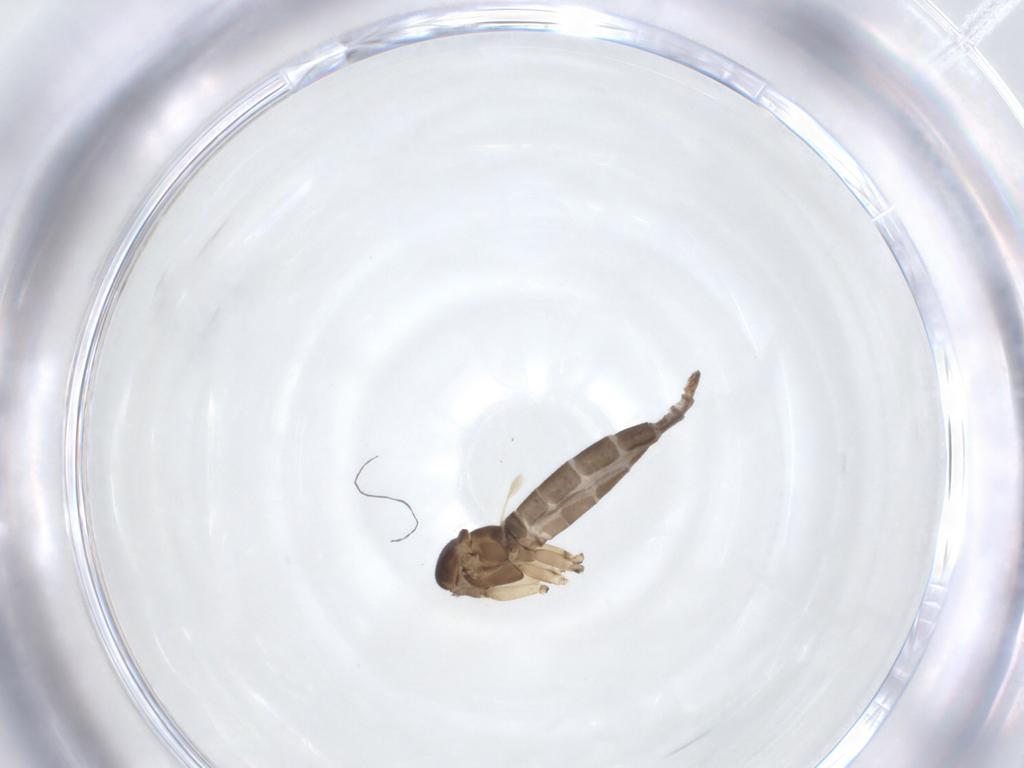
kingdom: Animalia
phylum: Arthropoda
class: Insecta
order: Diptera
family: Sciaridae
